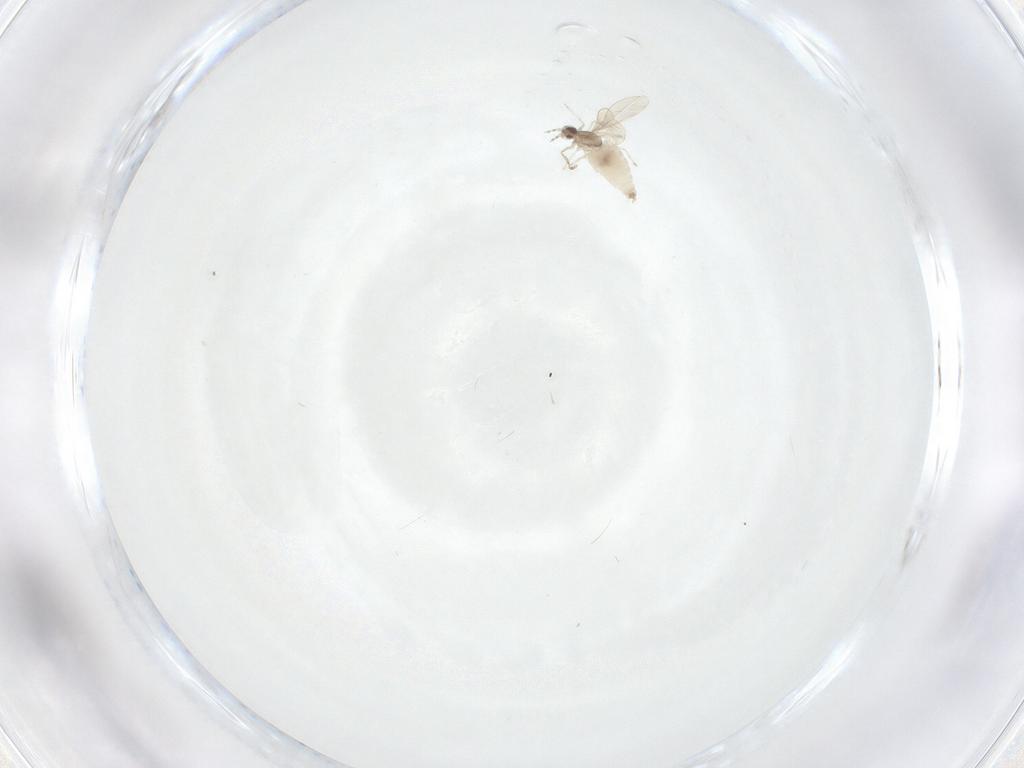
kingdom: Animalia
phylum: Arthropoda
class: Insecta
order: Diptera
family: Cecidomyiidae
